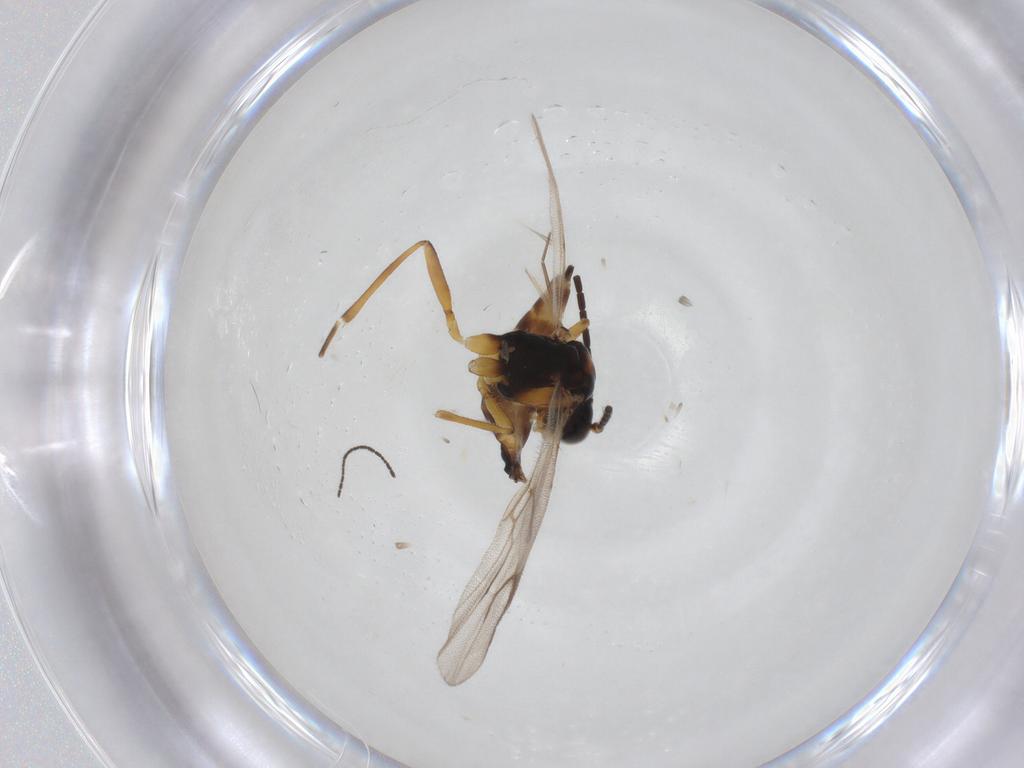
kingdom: Animalia
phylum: Arthropoda
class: Insecta
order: Hymenoptera
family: Braconidae
